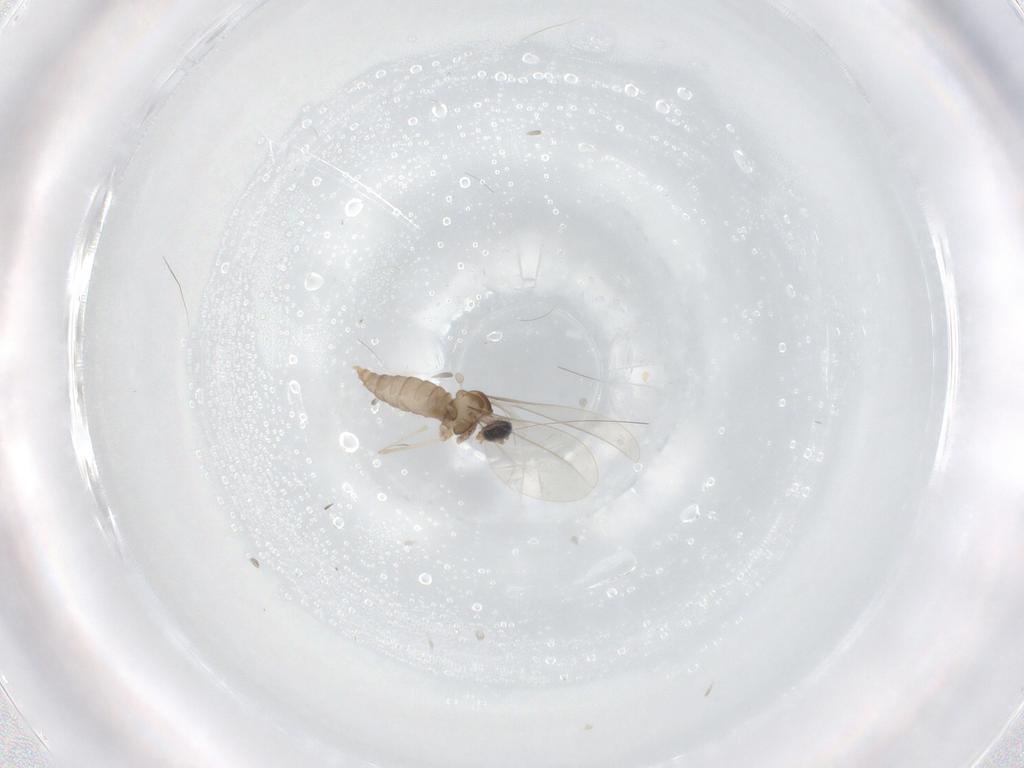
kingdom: Animalia
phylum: Arthropoda
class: Insecta
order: Diptera
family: Cecidomyiidae
